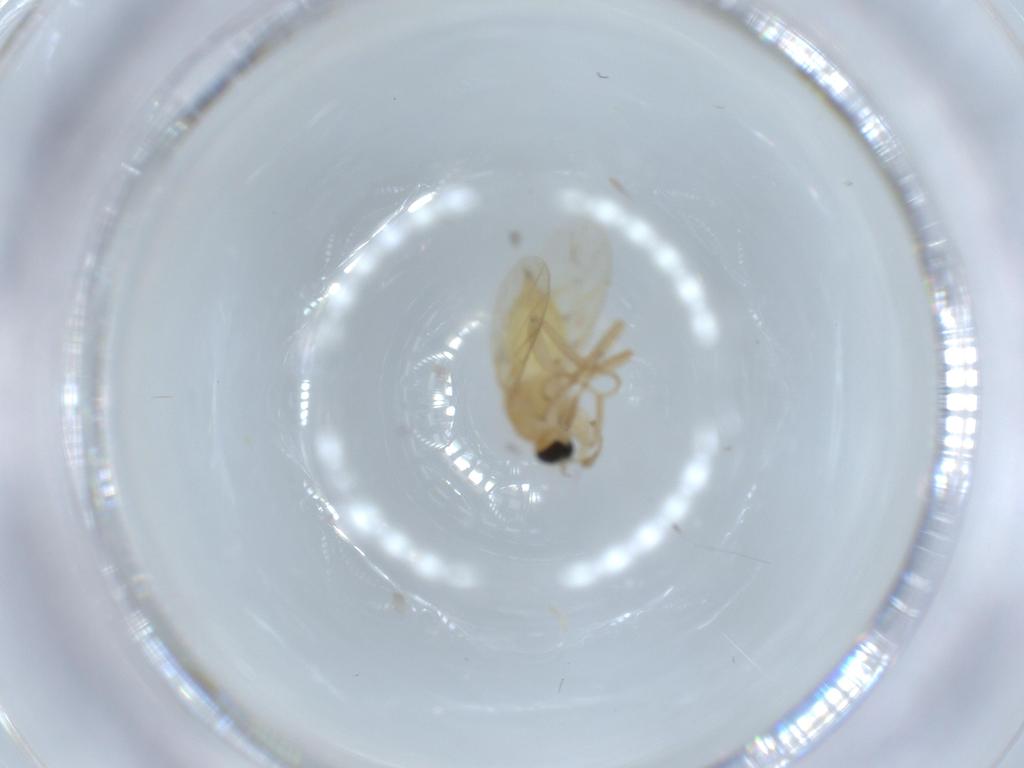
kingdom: Animalia
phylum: Arthropoda
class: Insecta
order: Diptera
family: Hybotidae
